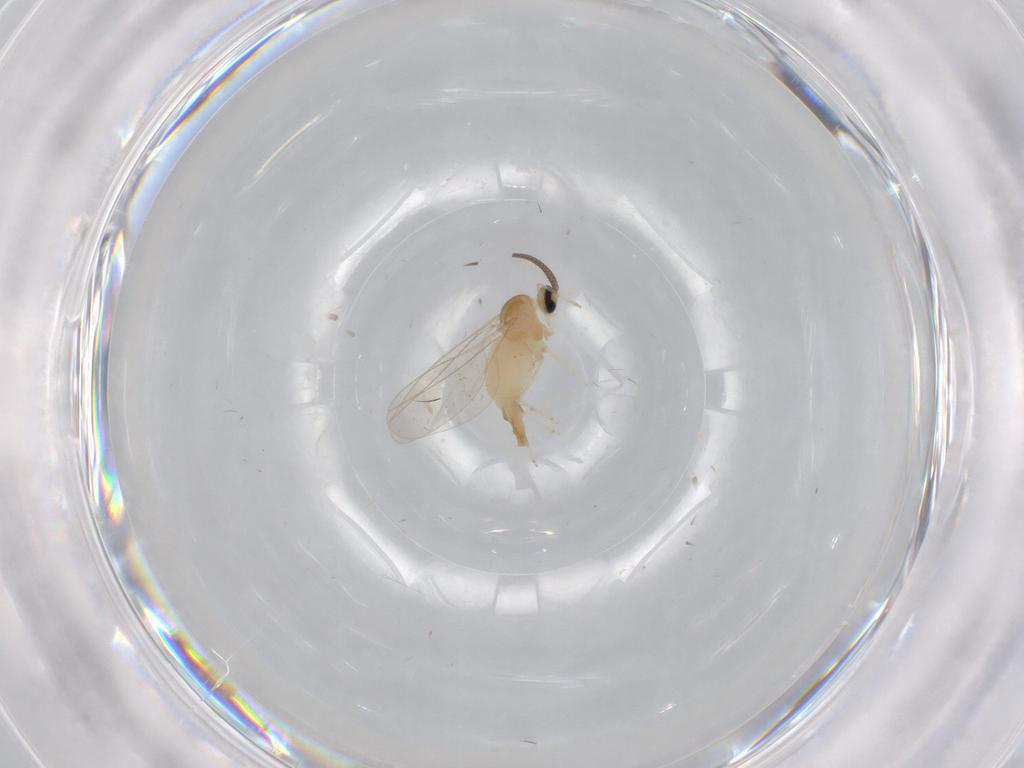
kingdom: Animalia
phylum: Arthropoda
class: Insecta
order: Diptera
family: Cecidomyiidae
